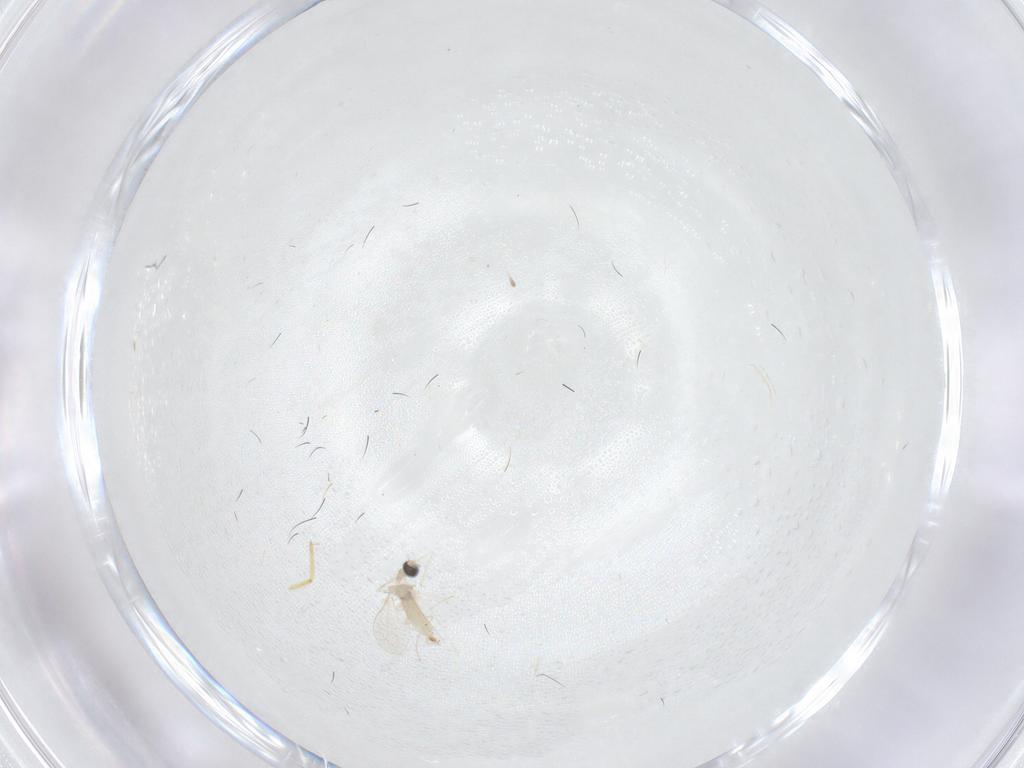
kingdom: Animalia
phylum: Arthropoda
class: Insecta
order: Diptera
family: Cecidomyiidae
